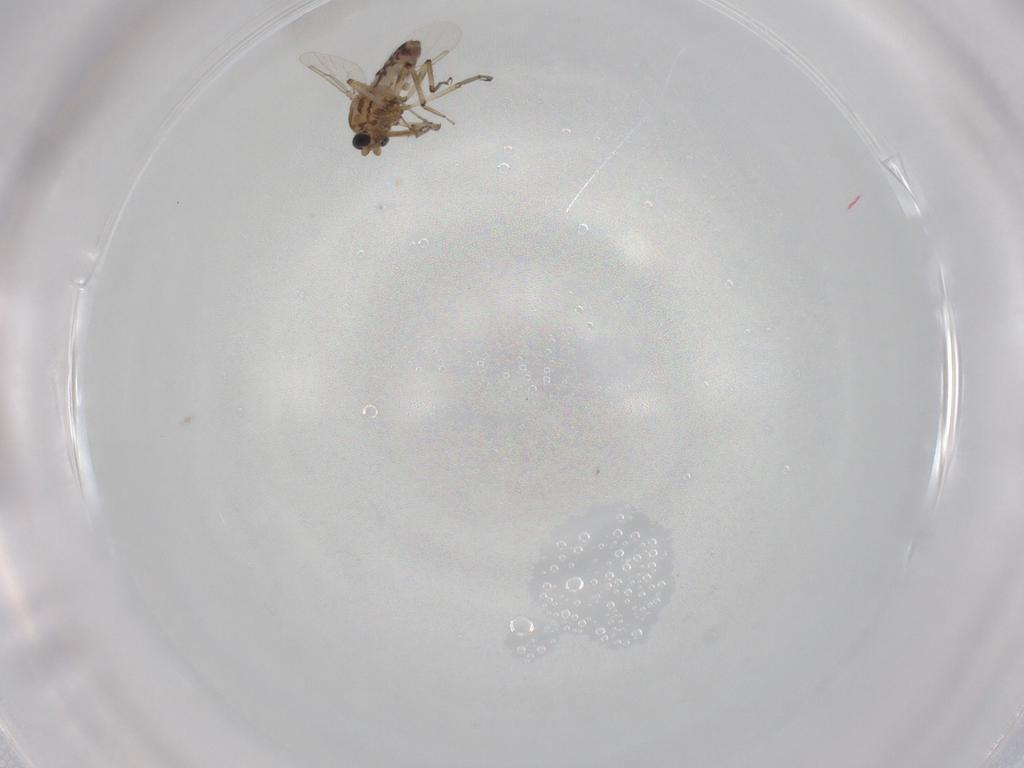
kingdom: Animalia
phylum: Arthropoda
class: Insecta
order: Diptera
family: Ceratopogonidae
